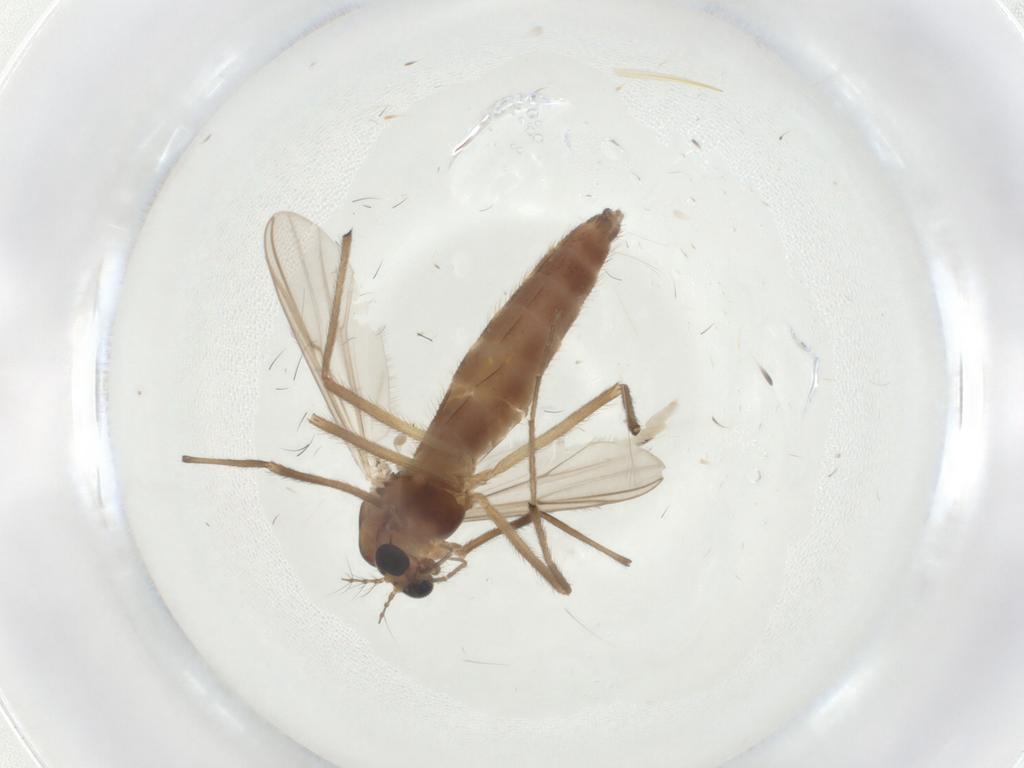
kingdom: Animalia
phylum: Arthropoda
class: Insecta
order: Diptera
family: Chironomidae
